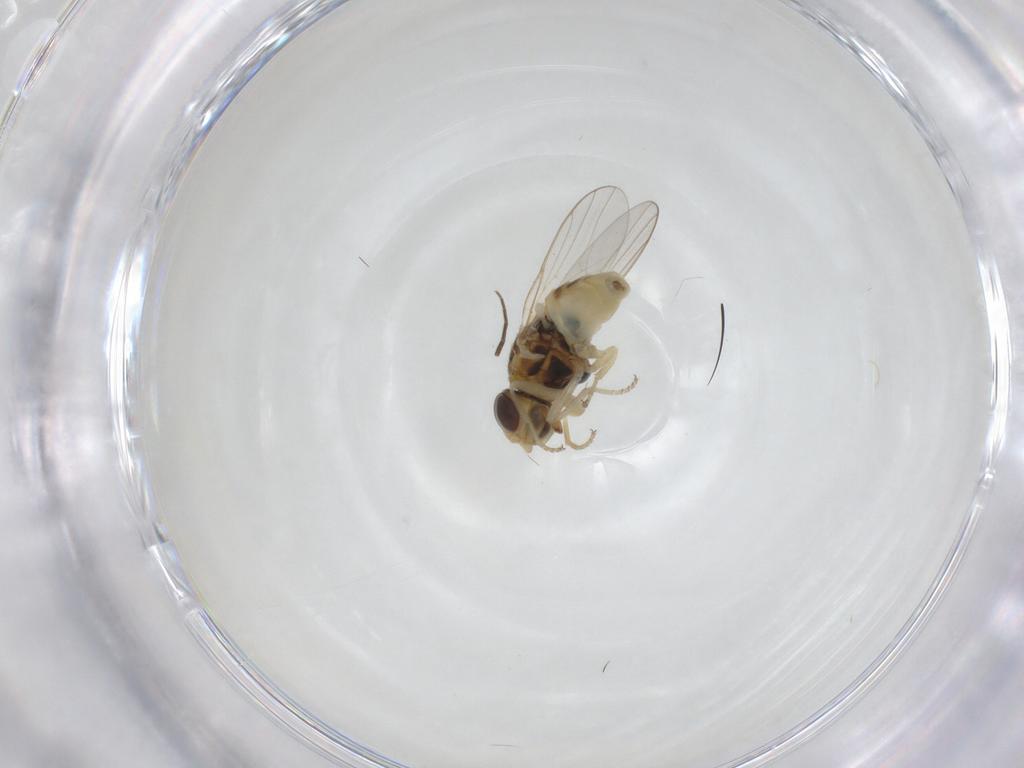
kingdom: Animalia
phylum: Arthropoda
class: Insecta
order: Diptera
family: Chloropidae
